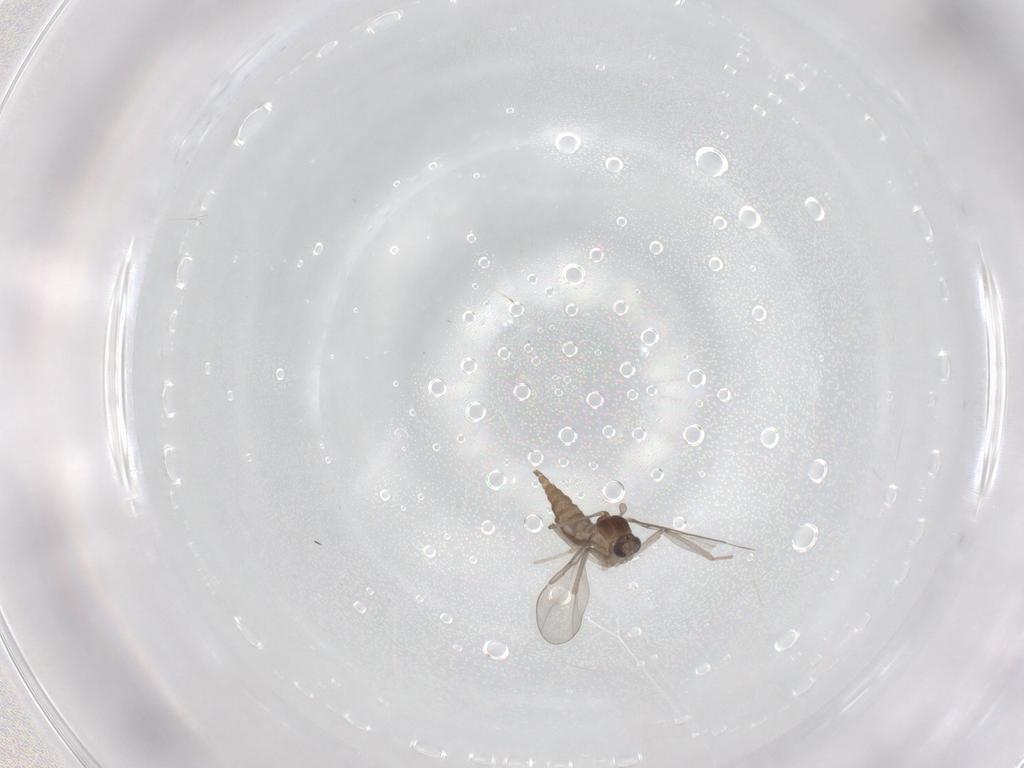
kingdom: Animalia
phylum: Arthropoda
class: Insecta
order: Diptera
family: Cecidomyiidae
